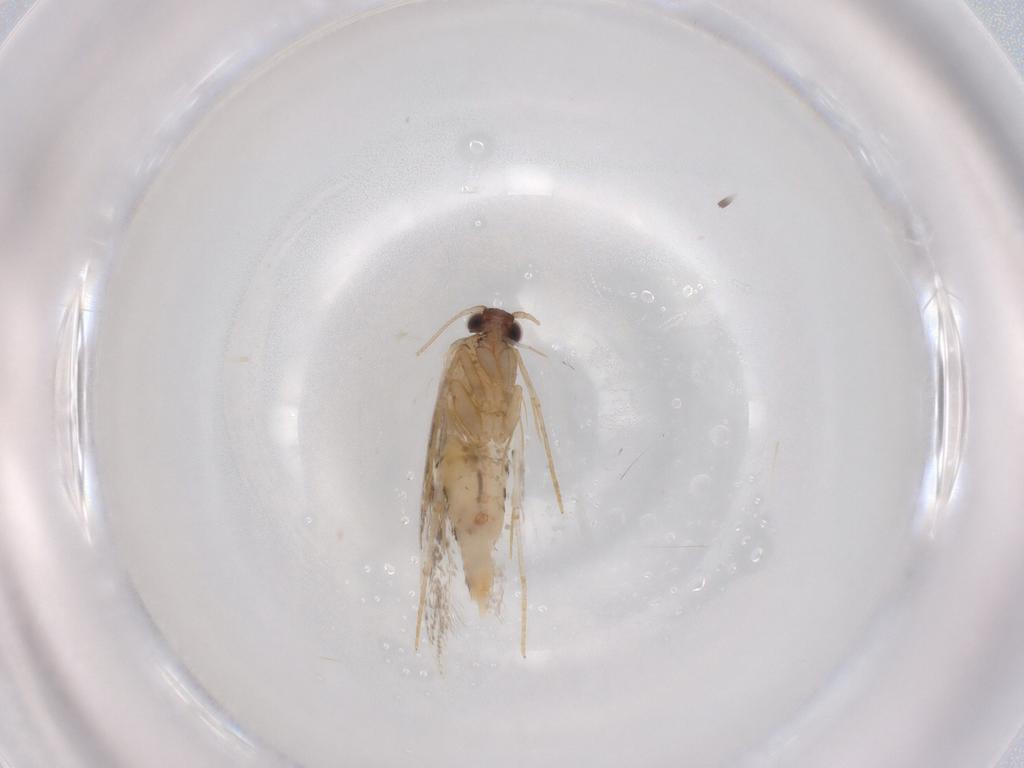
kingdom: Animalia
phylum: Arthropoda
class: Insecta
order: Lepidoptera
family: Tineidae
